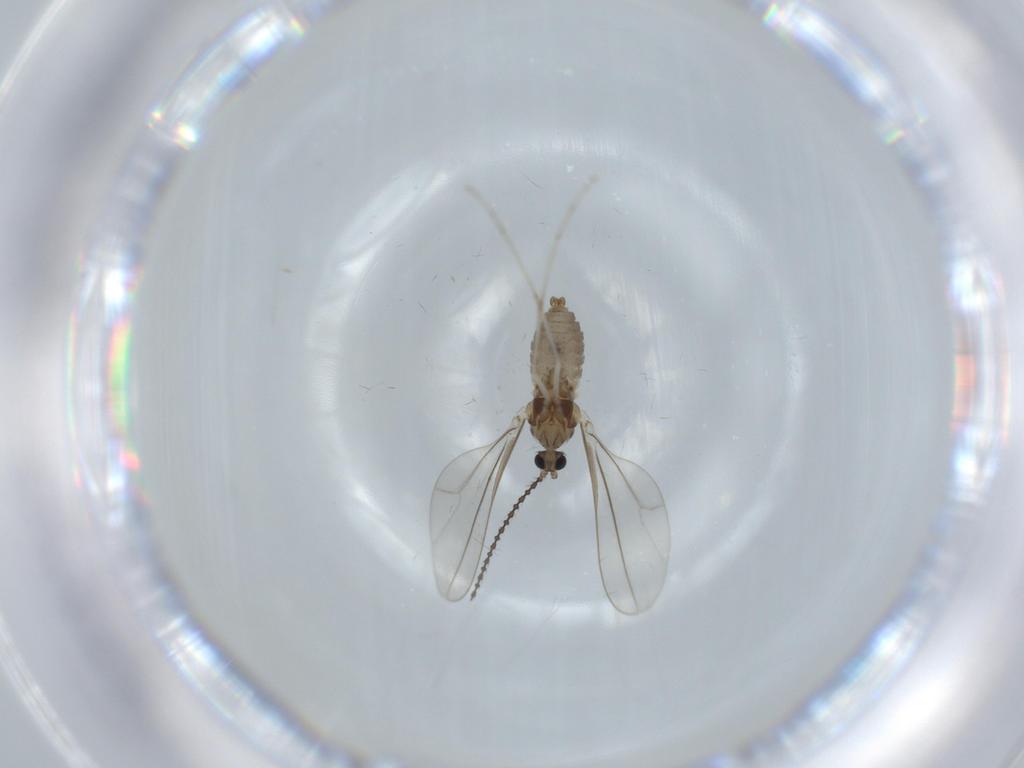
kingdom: Animalia
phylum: Arthropoda
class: Insecta
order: Diptera
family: Cecidomyiidae
